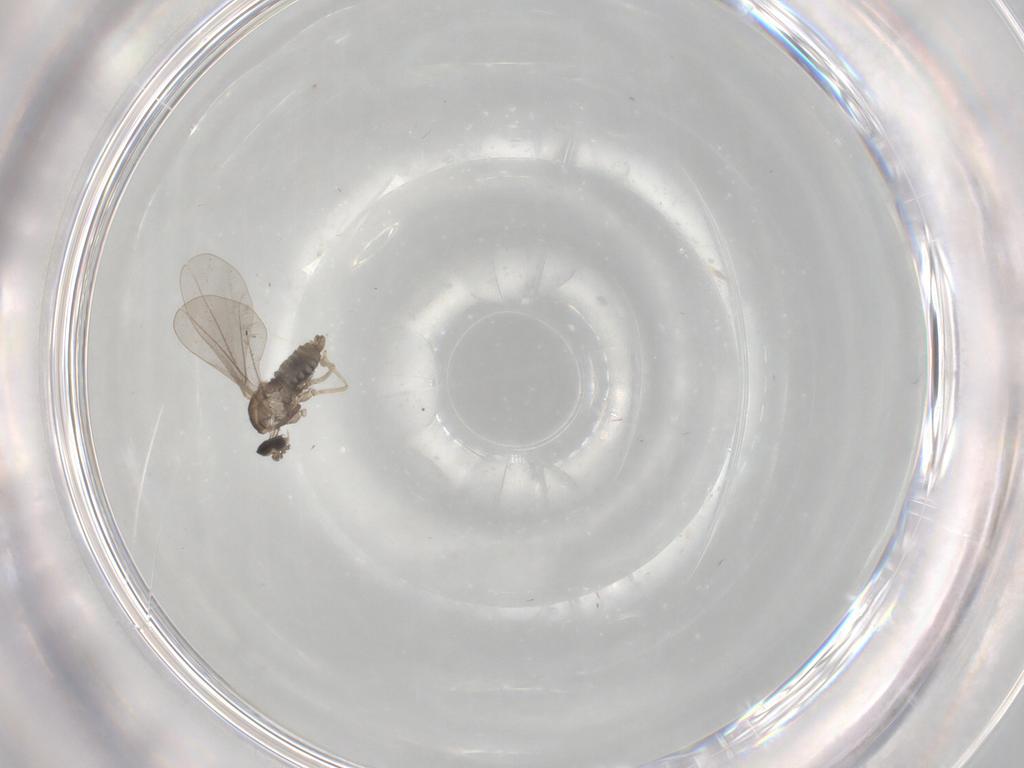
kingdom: Animalia
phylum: Arthropoda
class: Insecta
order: Diptera
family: Cecidomyiidae
